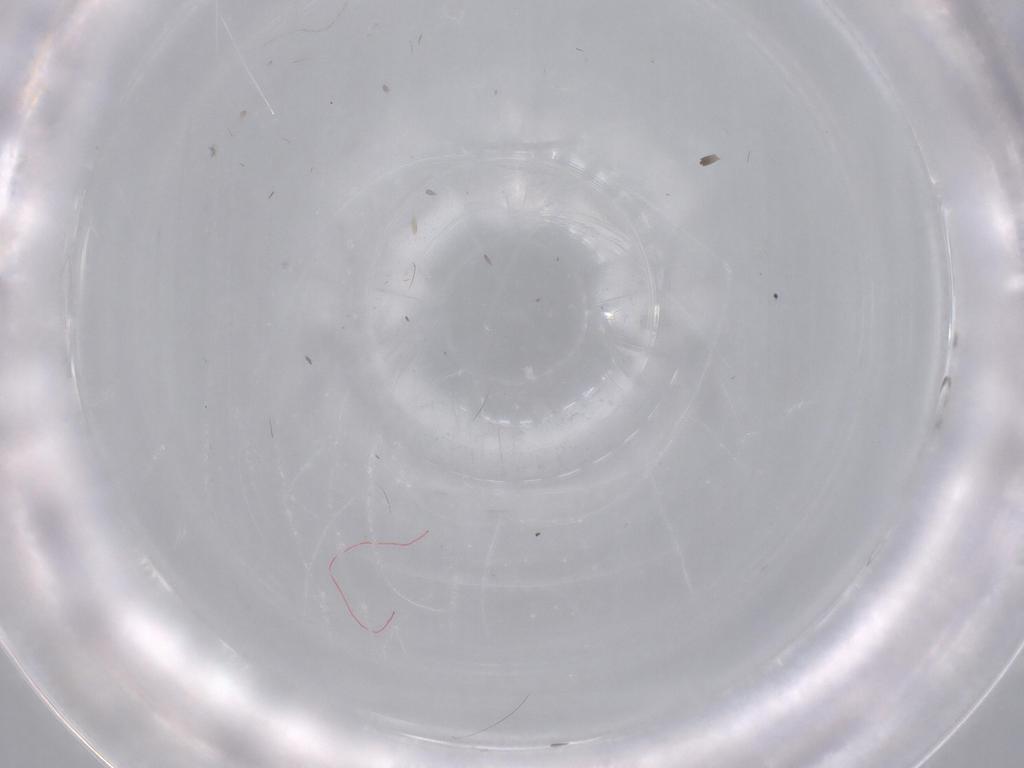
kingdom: Animalia
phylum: Arthropoda
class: Insecta
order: Diptera
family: Cecidomyiidae
